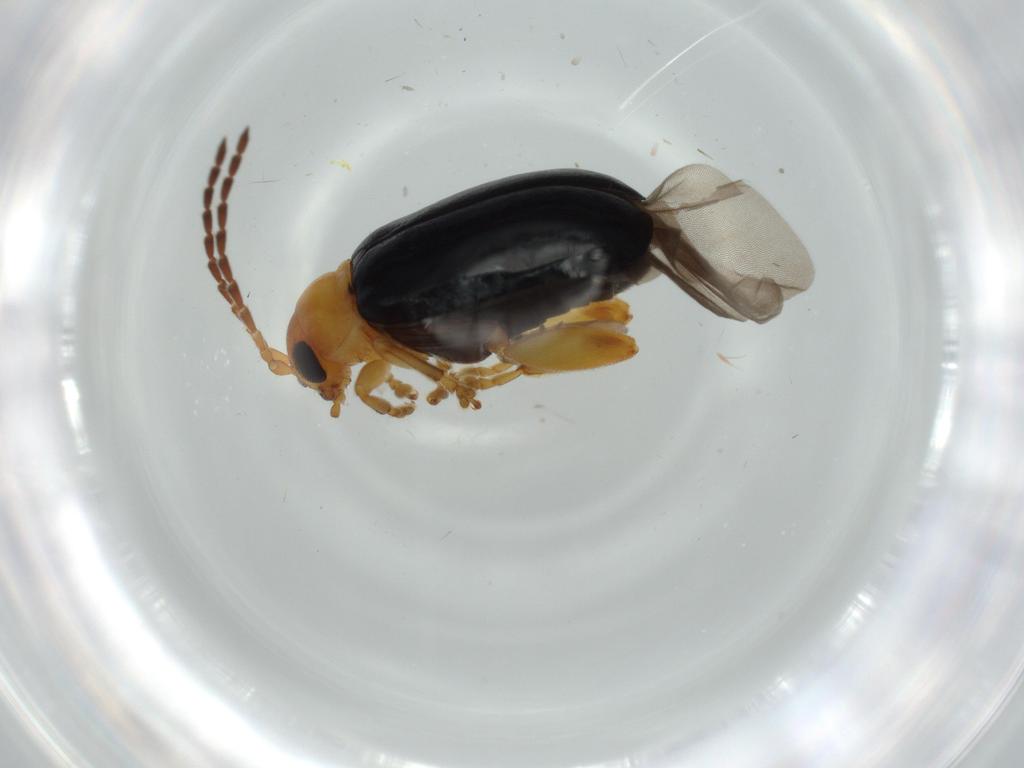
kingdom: Animalia
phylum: Arthropoda
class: Insecta
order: Coleoptera
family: Chrysomelidae
